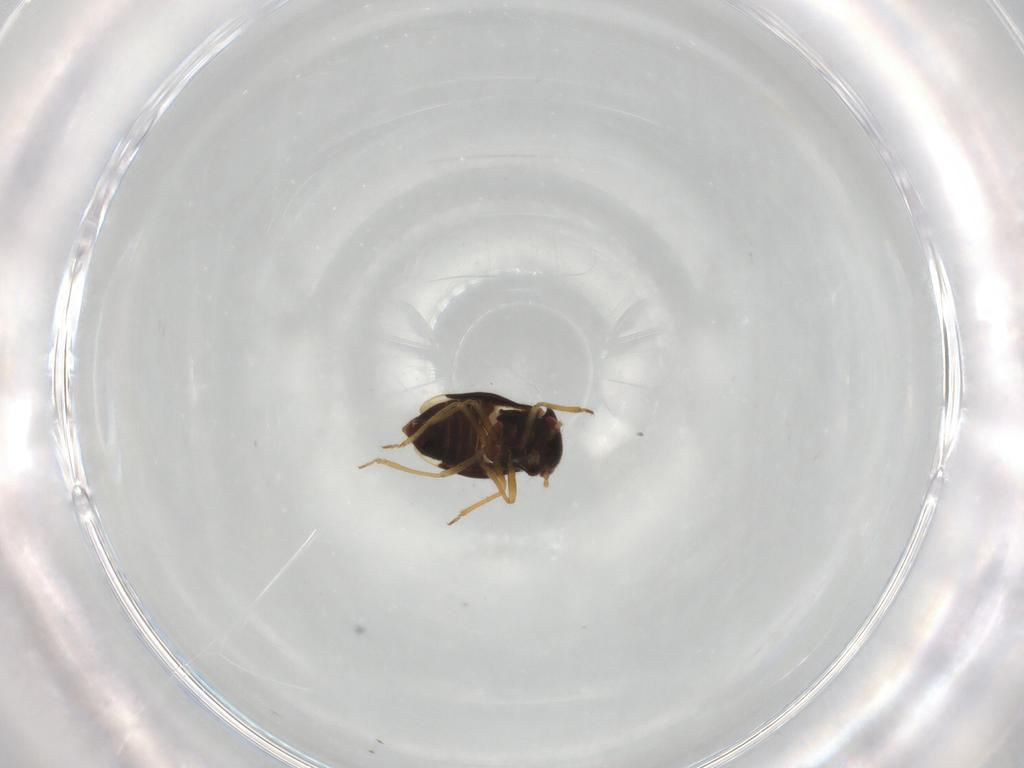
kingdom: Animalia
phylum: Arthropoda
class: Insecta
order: Hemiptera
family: Schizopteridae
